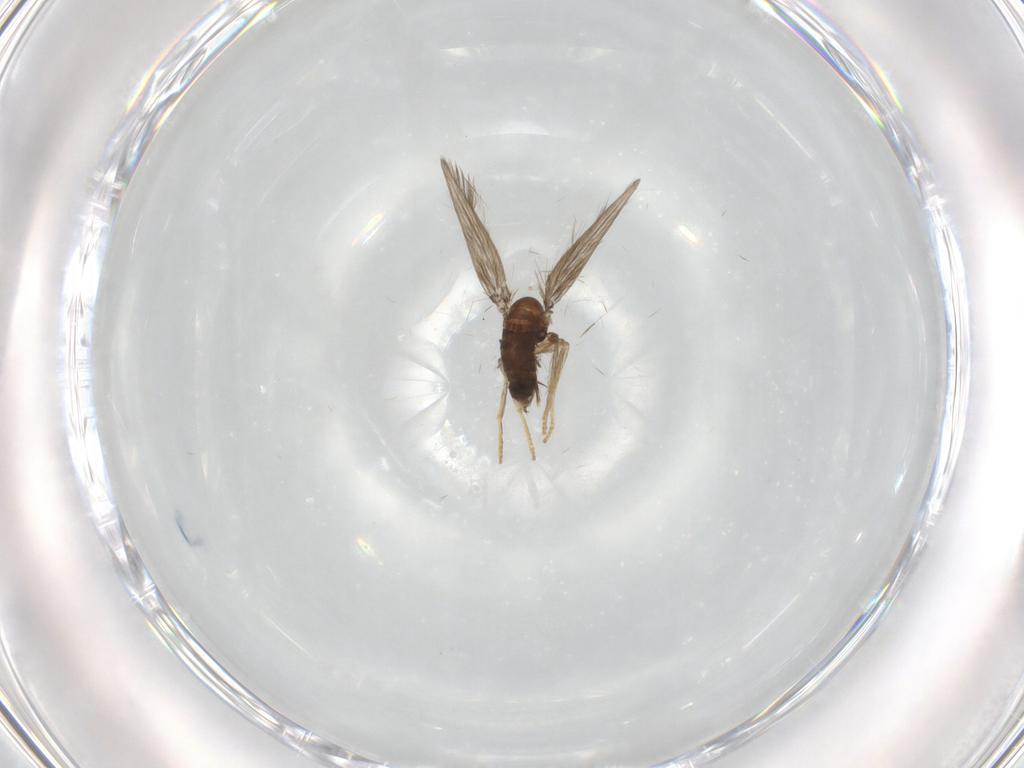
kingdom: Animalia
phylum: Arthropoda
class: Insecta
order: Diptera
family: Psychodidae
